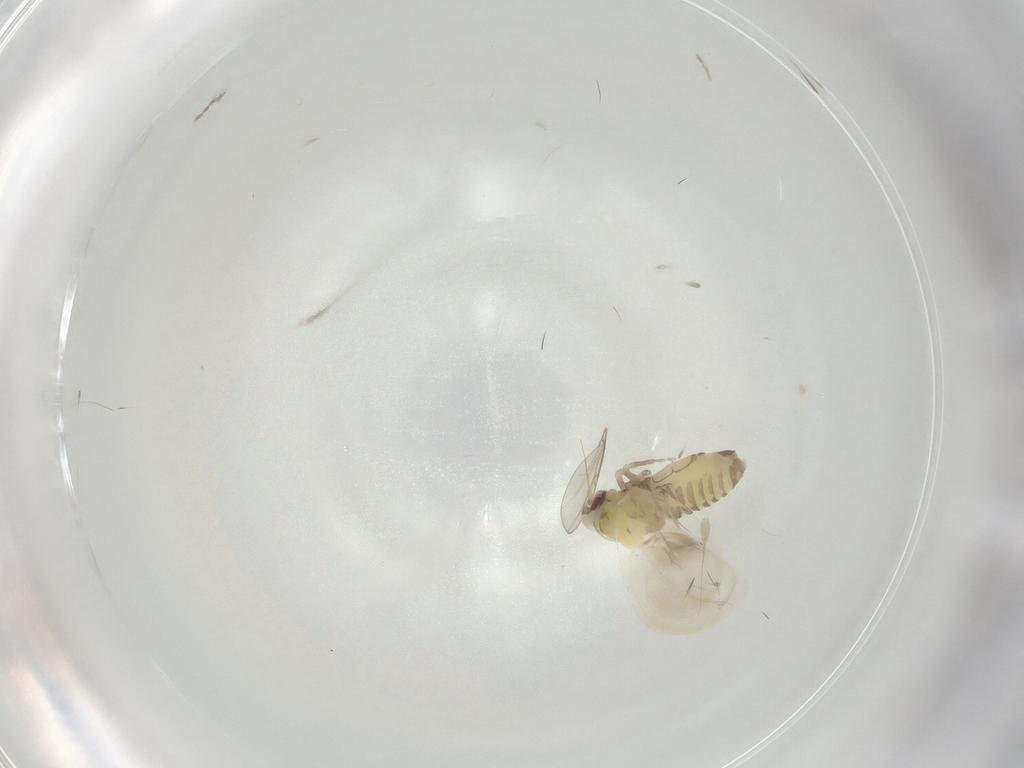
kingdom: Animalia
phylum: Arthropoda
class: Insecta
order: Hemiptera
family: Aleyrodidae
